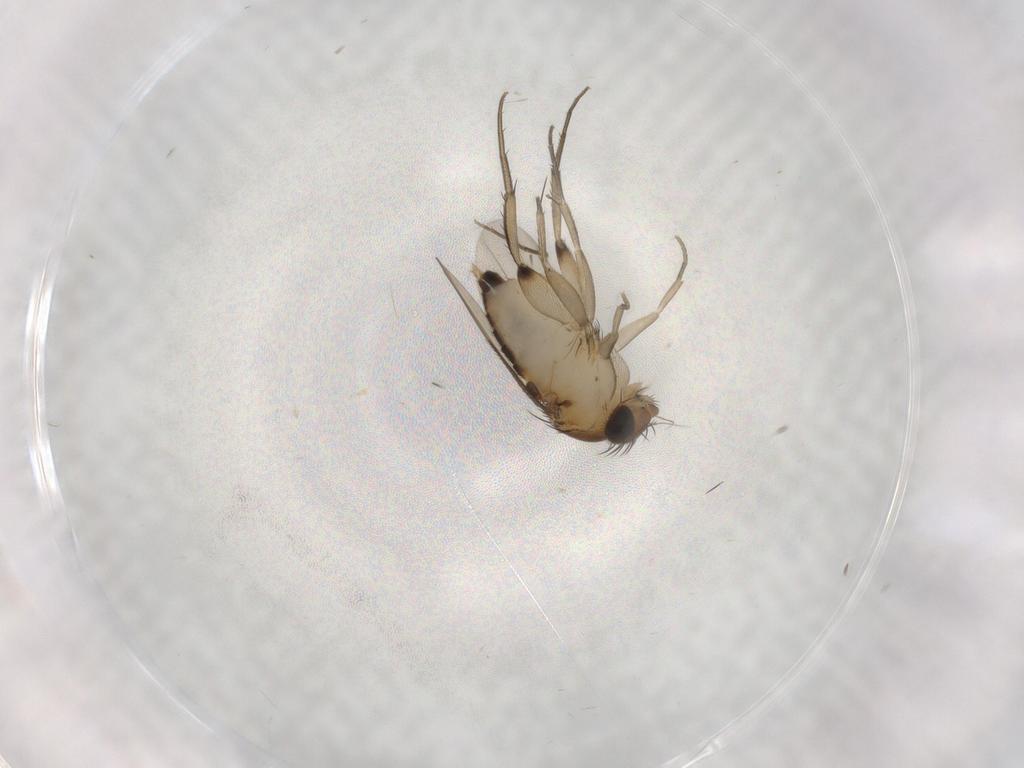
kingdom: Animalia
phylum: Arthropoda
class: Insecta
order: Diptera
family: Phoridae
